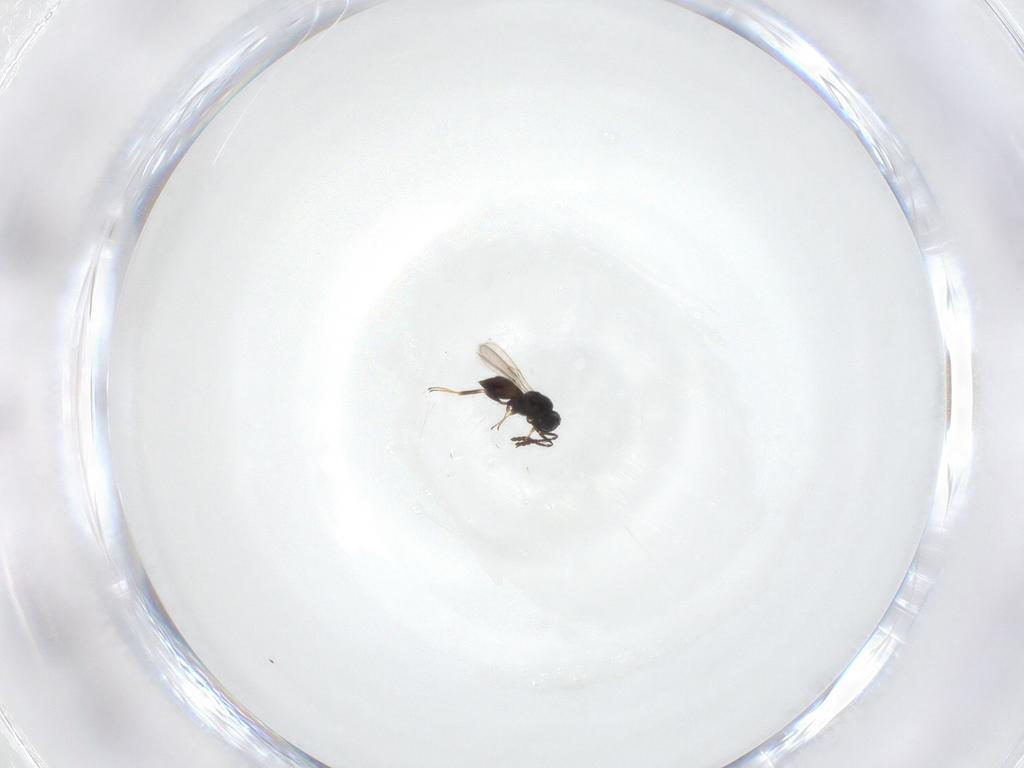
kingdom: Animalia
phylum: Arthropoda
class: Insecta
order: Hymenoptera
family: Scelionidae
